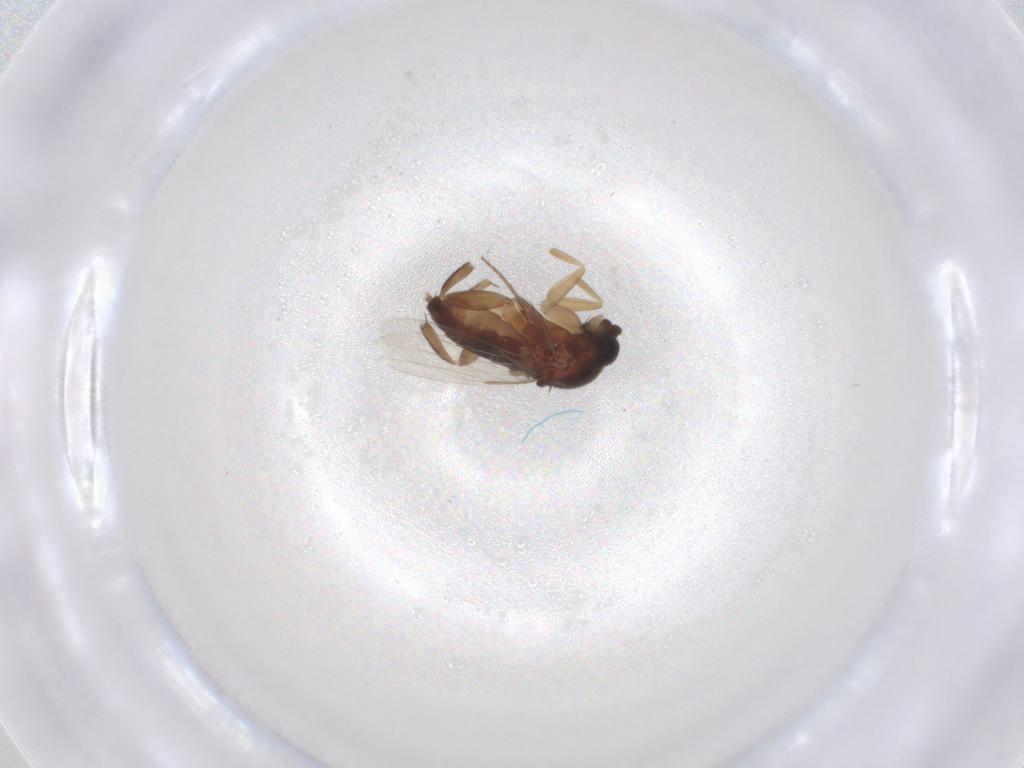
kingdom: Animalia
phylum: Arthropoda
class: Insecta
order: Diptera
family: Phoridae
